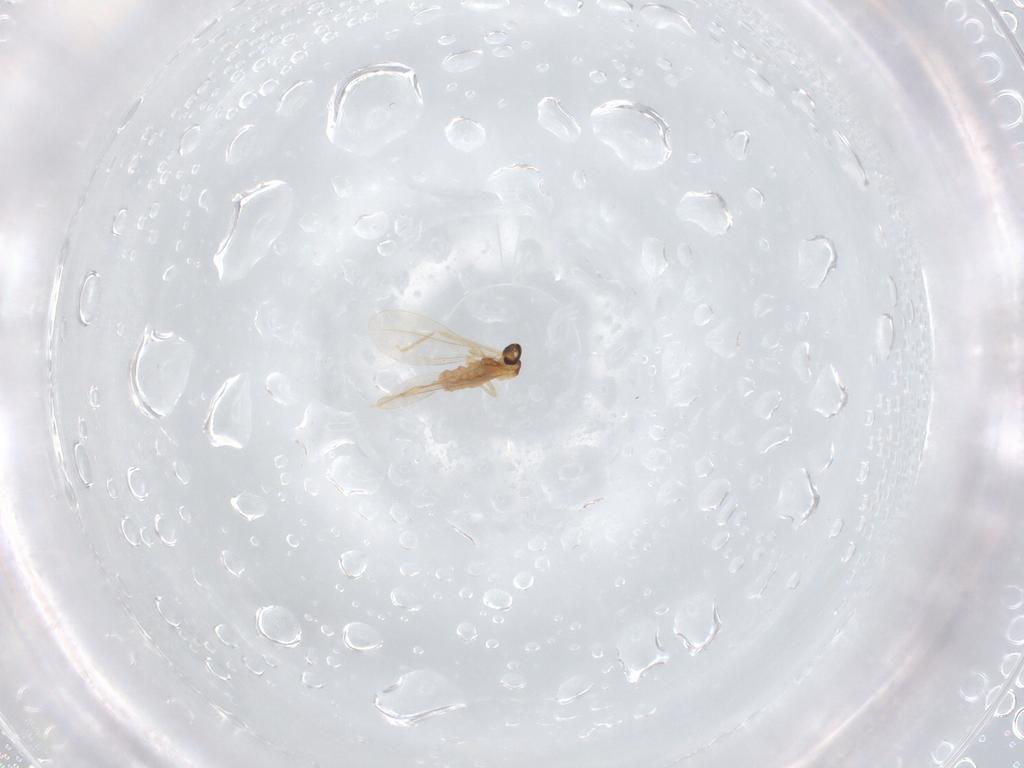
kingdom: Animalia
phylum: Arthropoda
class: Insecta
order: Diptera
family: Cecidomyiidae
